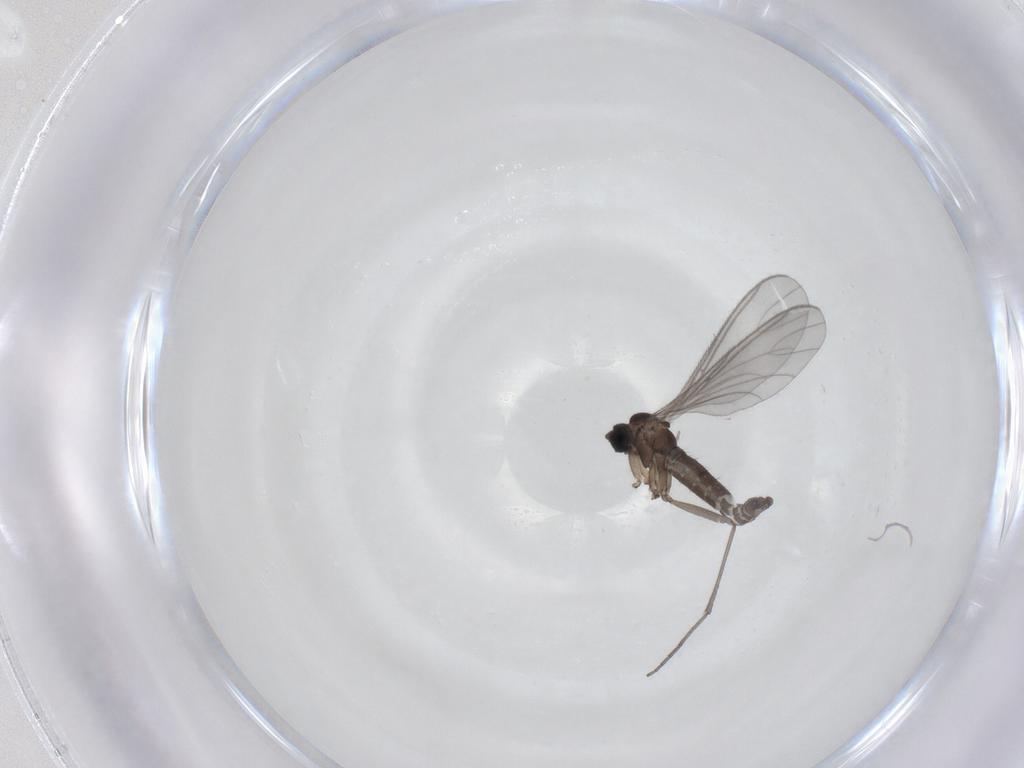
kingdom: Animalia
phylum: Arthropoda
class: Insecta
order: Diptera
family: Sciaridae
